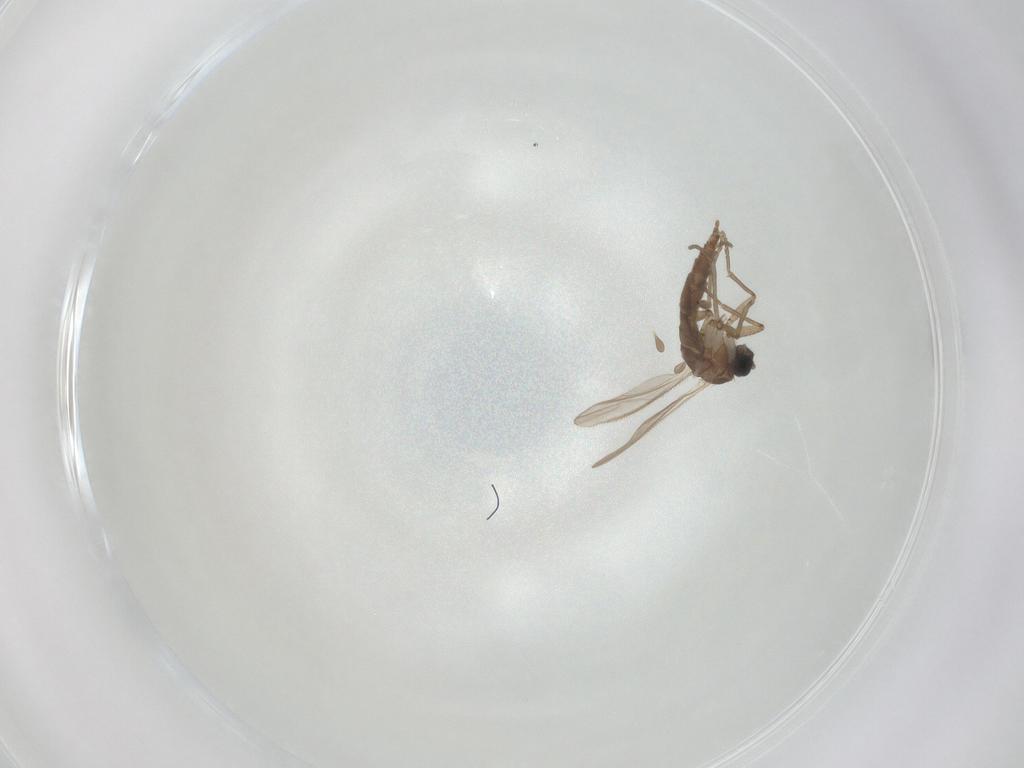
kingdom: Animalia
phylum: Arthropoda
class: Insecta
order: Diptera
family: Sciaridae
